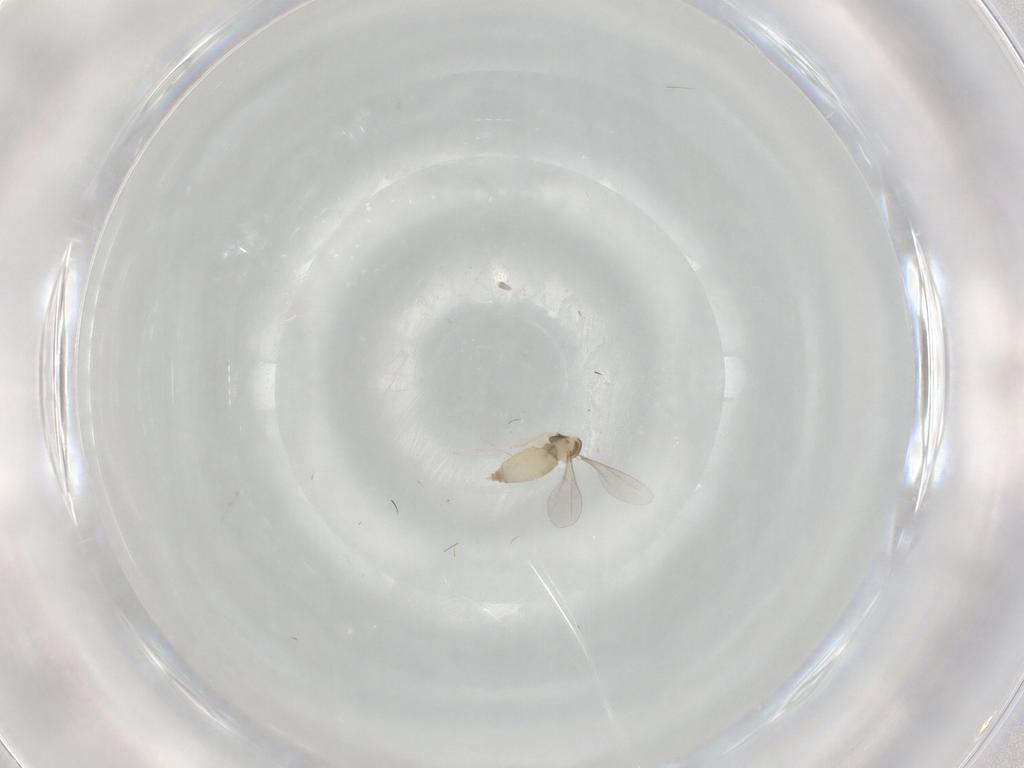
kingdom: Animalia
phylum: Arthropoda
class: Insecta
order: Diptera
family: Cecidomyiidae
